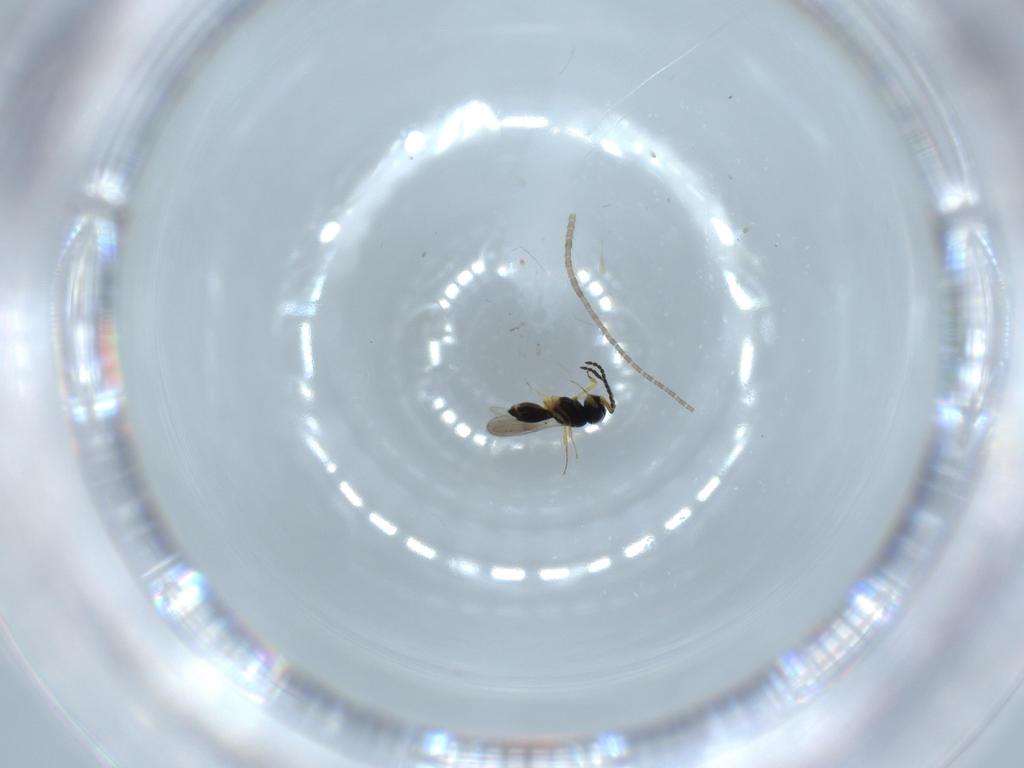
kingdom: Animalia
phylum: Arthropoda
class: Insecta
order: Hymenoptera
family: Scelionidae
